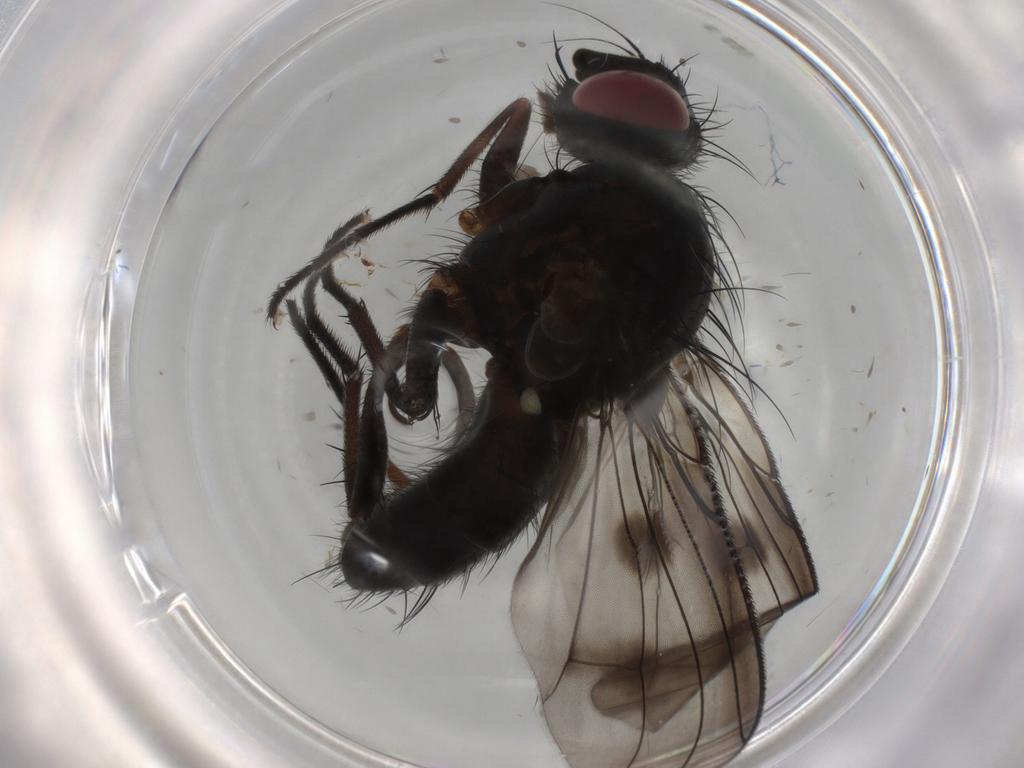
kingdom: Animalia
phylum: Arthropoda
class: Insecta
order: Diptera
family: Muscidae
